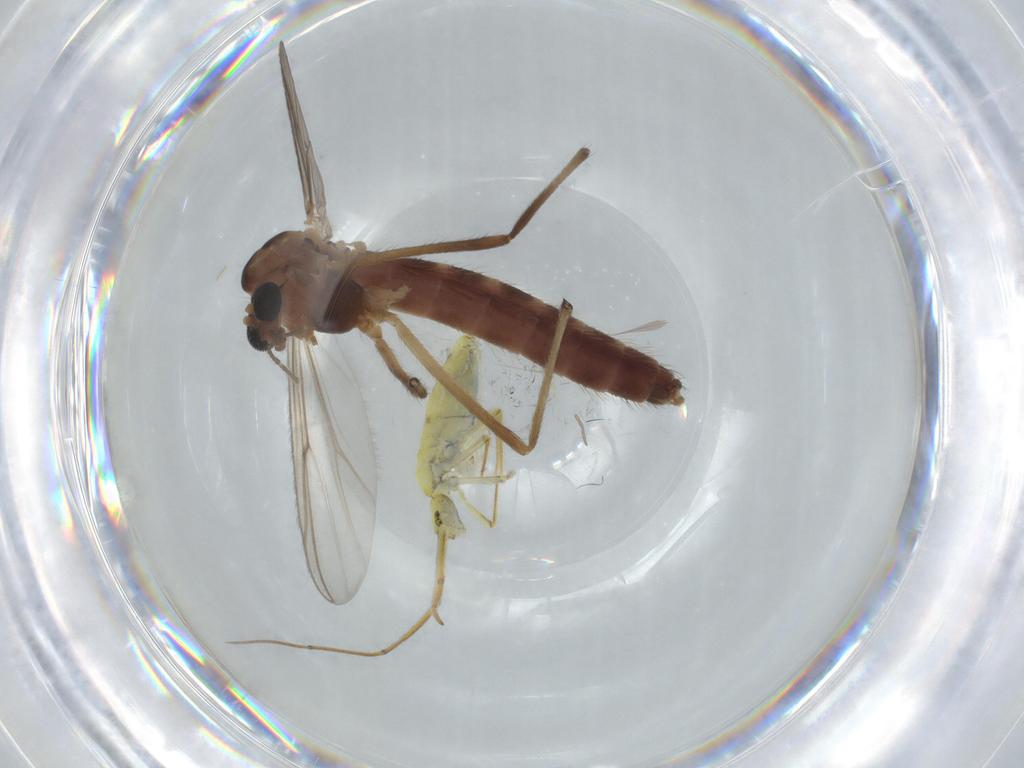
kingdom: Animalia
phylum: Arthropoda
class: Insecta
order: Diptera
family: Chironomidae
